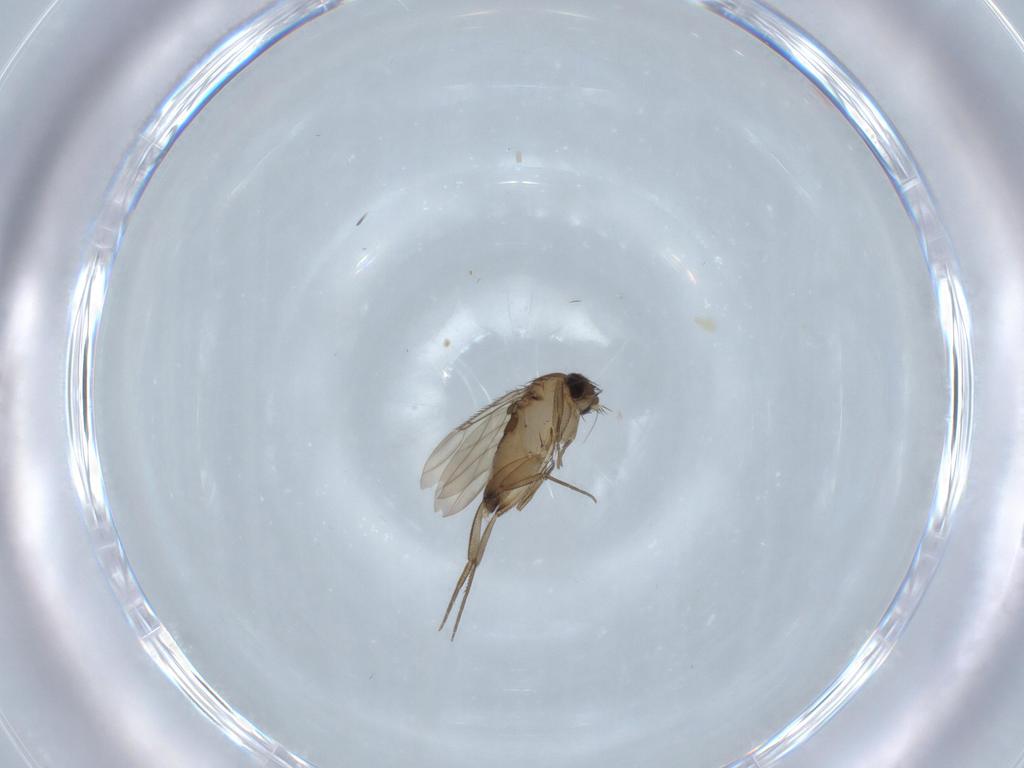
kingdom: Animalia
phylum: Arthropoda
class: Insecta
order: Diptera
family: Phoridae
